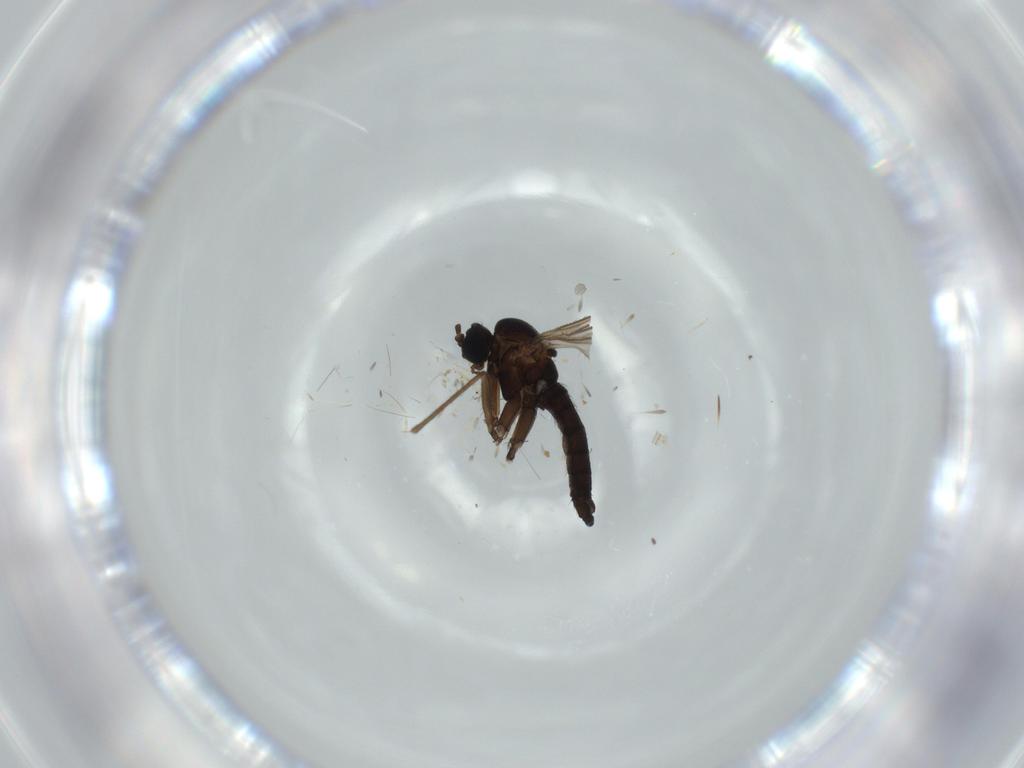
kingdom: Animalia
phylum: Arthropoda
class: Insecta
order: Diptera
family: Sciaridae
